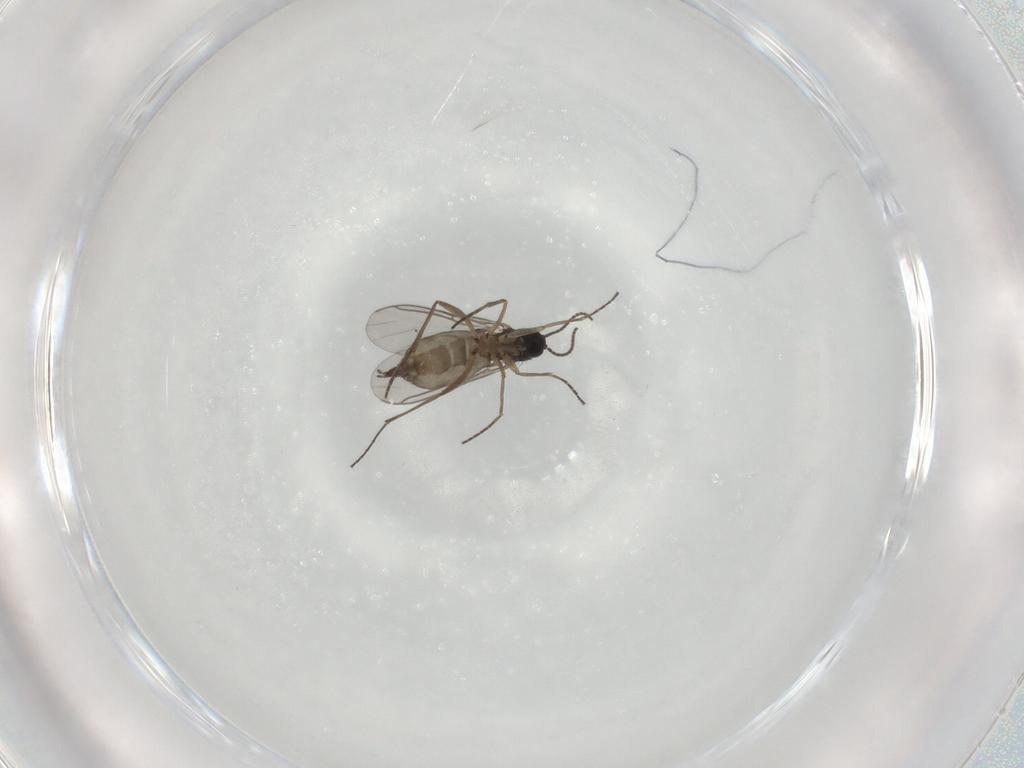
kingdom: Animalia
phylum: Arthropoda
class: Insecta
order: Diptera
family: Sciaridae
